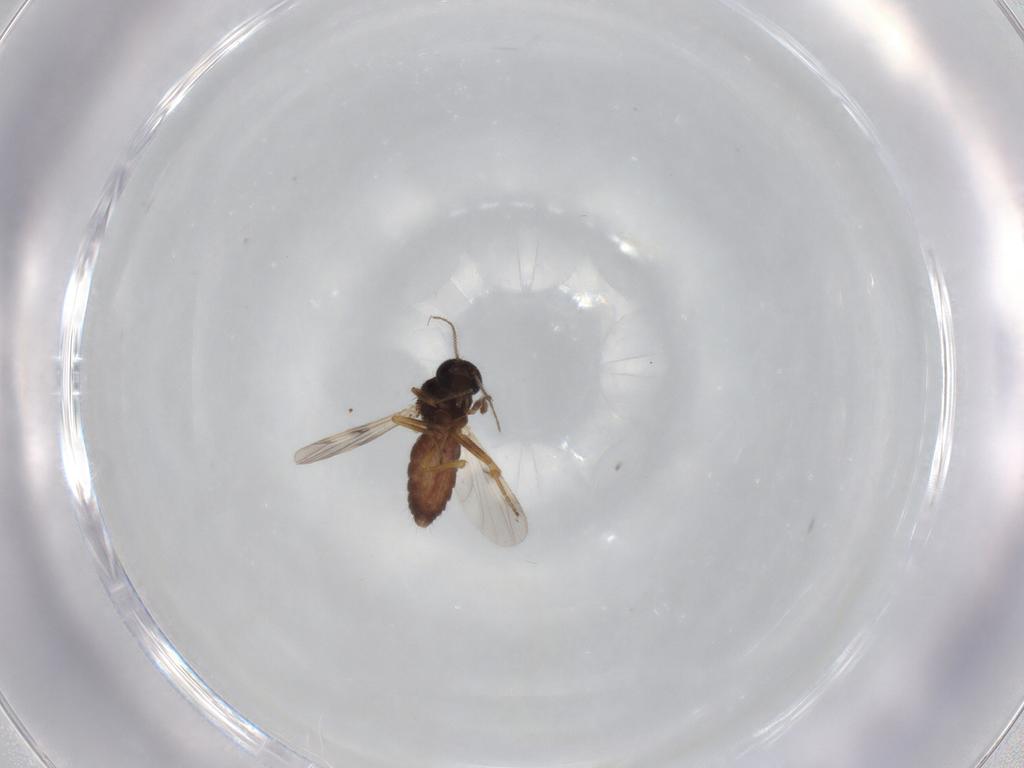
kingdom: Animalia
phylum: Arthropoda
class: Insecta
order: Diptera
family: Ceratopogonidae
